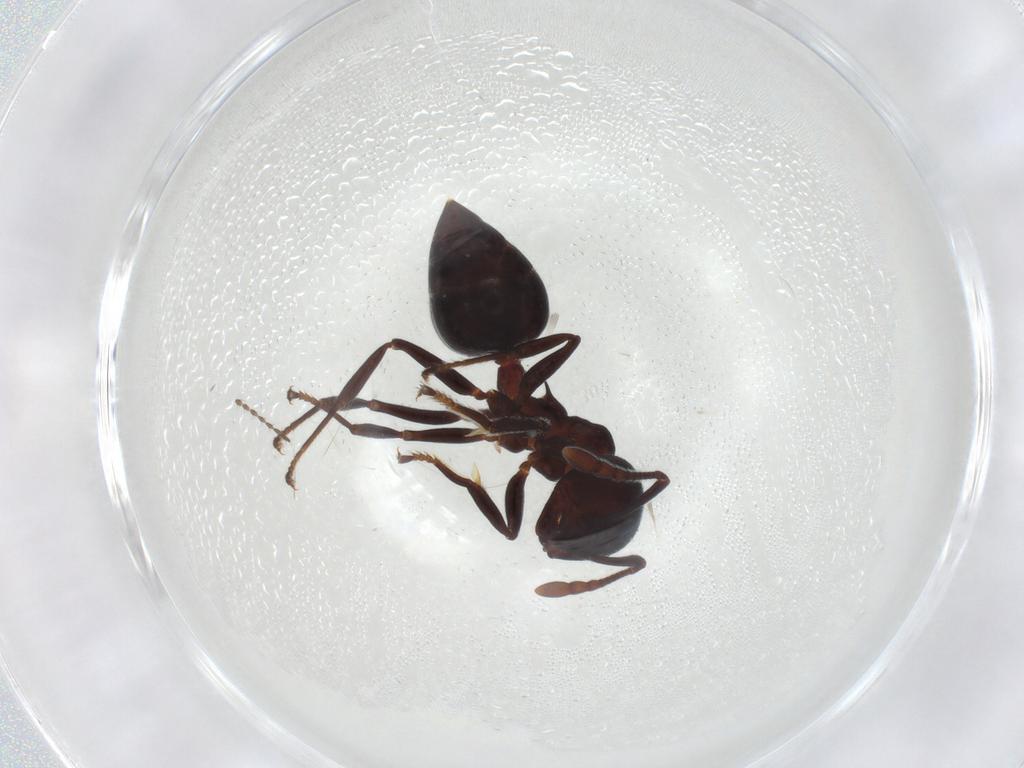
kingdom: Animalia
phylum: Arthropoda
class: Insecta
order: Hymenoptera
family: Formicidae
